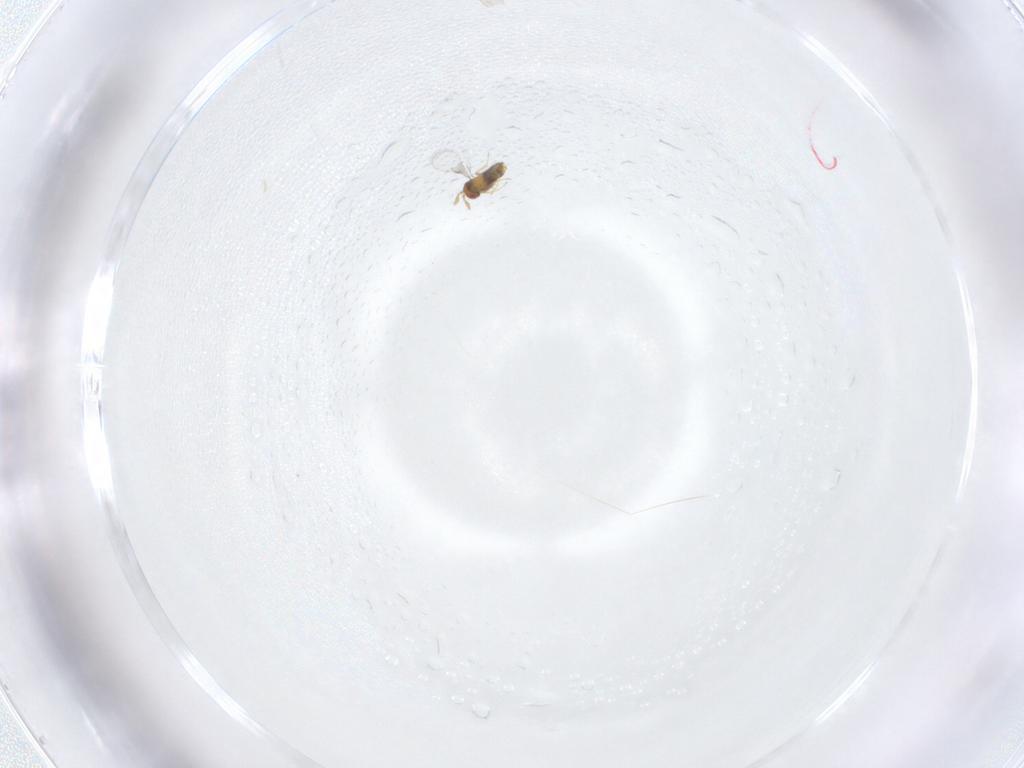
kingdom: Animalia
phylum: Arthropoda
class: Insecta
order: Hymenoptera
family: Trichogrammatidae
